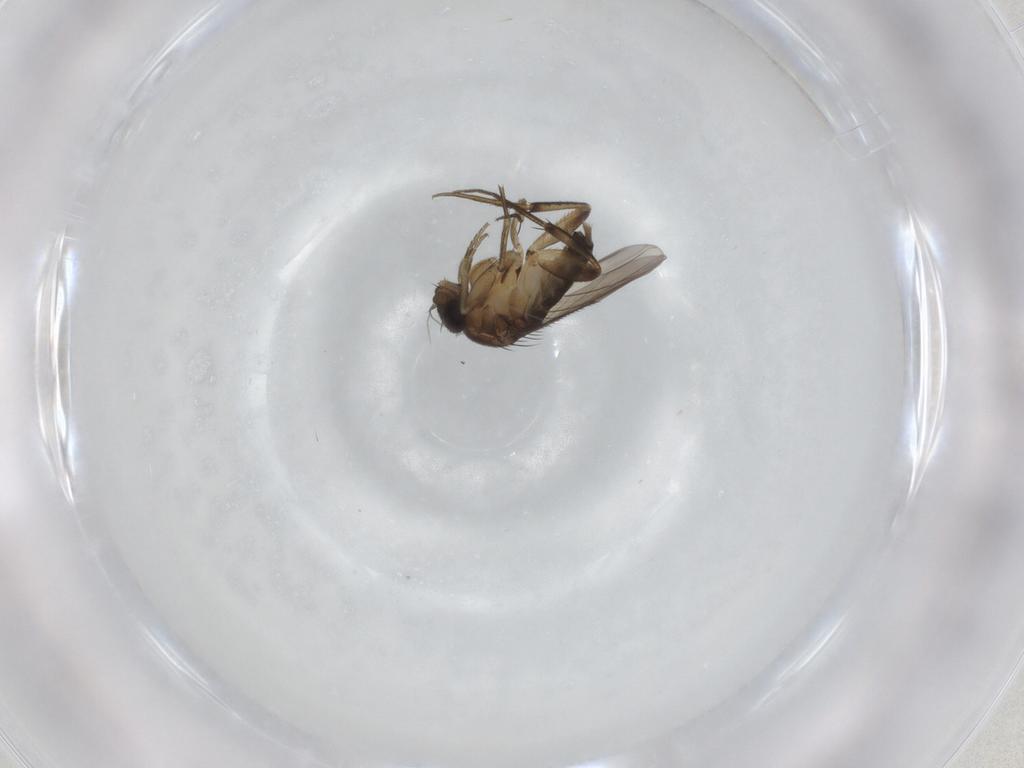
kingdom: Animalia
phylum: Arthropoda
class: Insecta
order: Diptera
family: Phoridae
